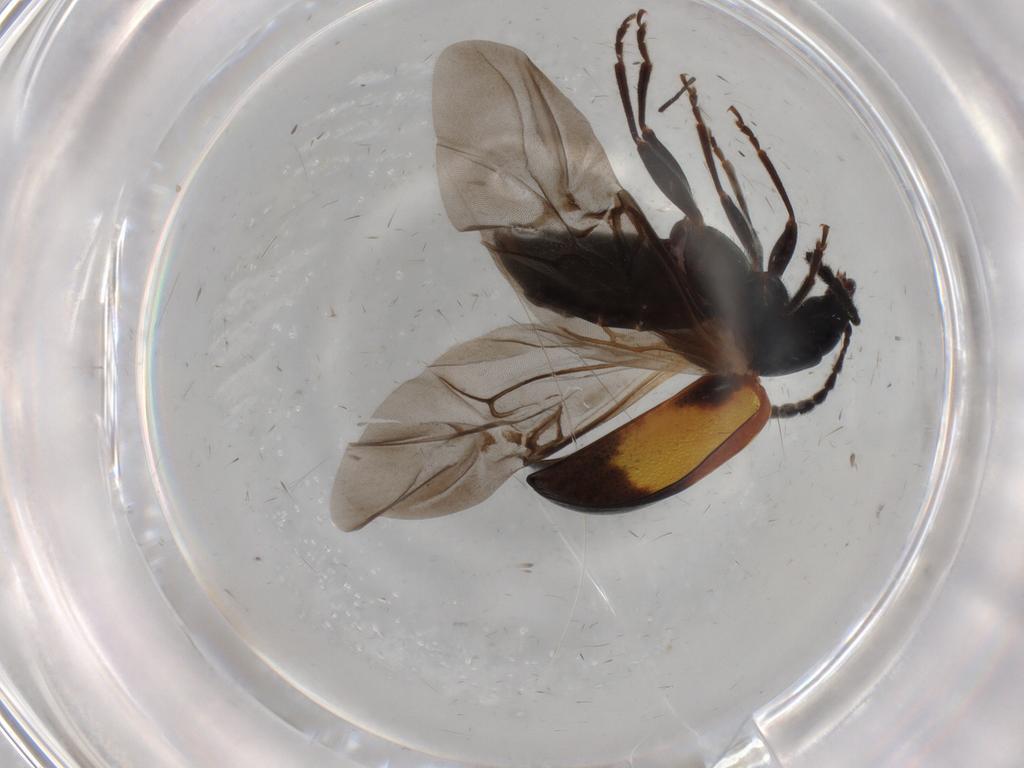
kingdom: Animalia
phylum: Arthropoda
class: Insecta
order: Coleoptera
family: Chrysomelidae
